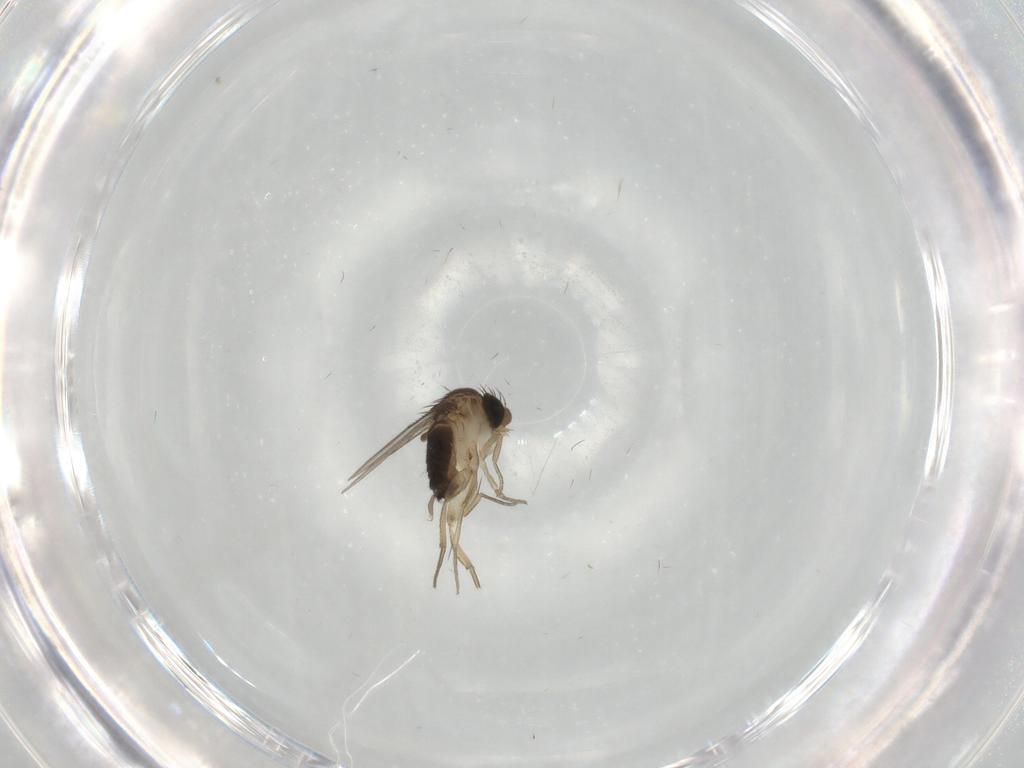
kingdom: Animalia
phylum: Arthropoda
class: Insecta
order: Diptera
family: Phoridae
